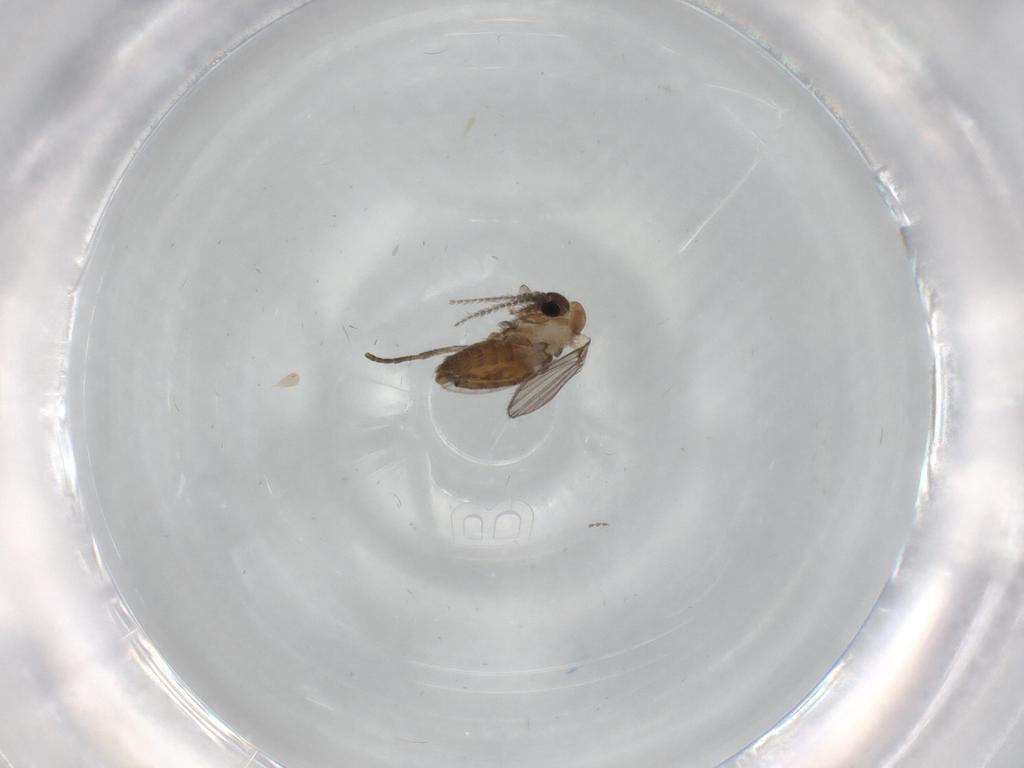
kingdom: Animalia
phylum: Arthropoda
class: Insecta
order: Diptera
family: Psychodidae
